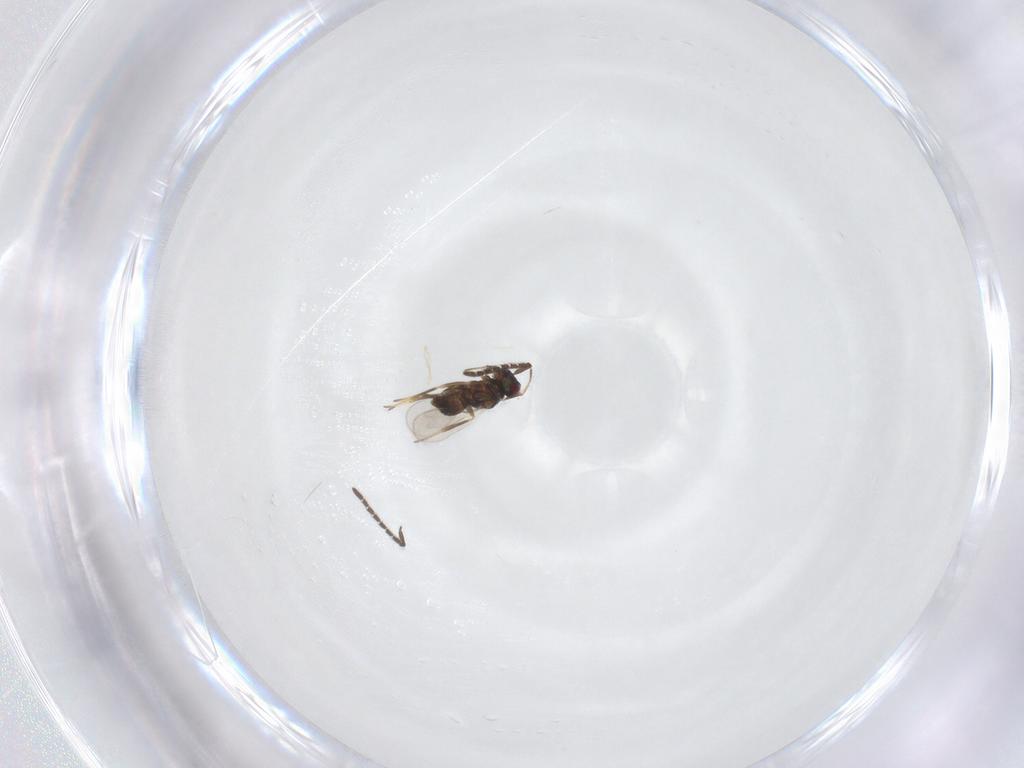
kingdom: Animalia
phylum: Arthropoda
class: Insecta
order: Hymenoptera
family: Encyrtidae
